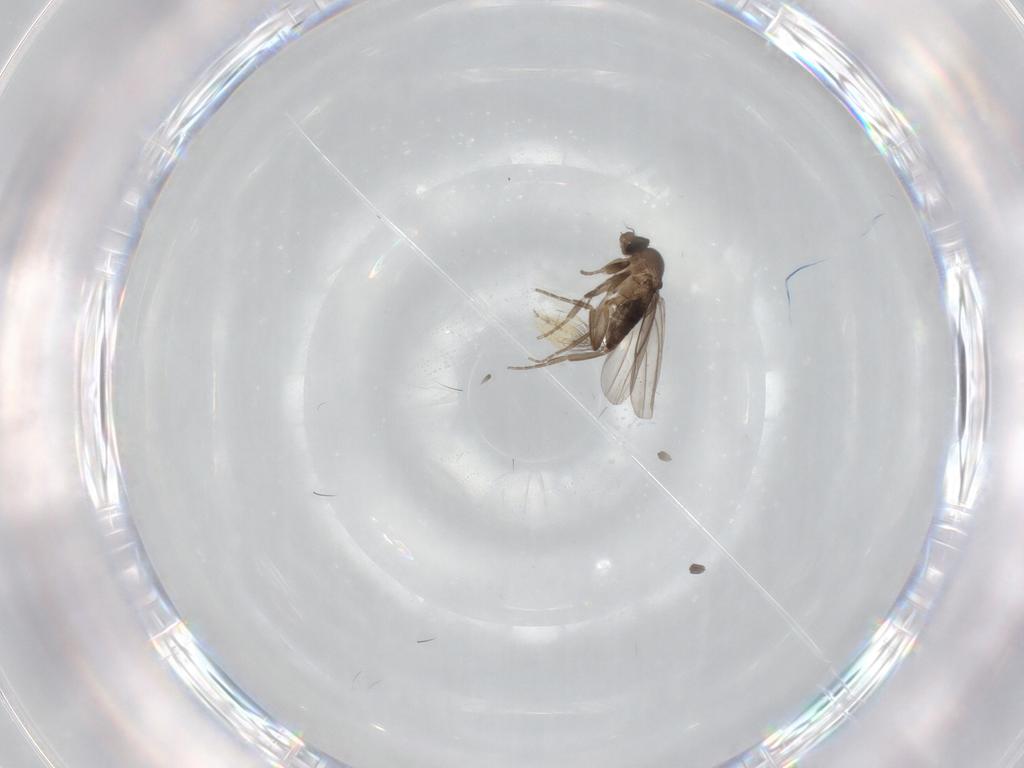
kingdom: Animalia
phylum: Arthropoda
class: Insecta
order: Diptera
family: Phoridae
